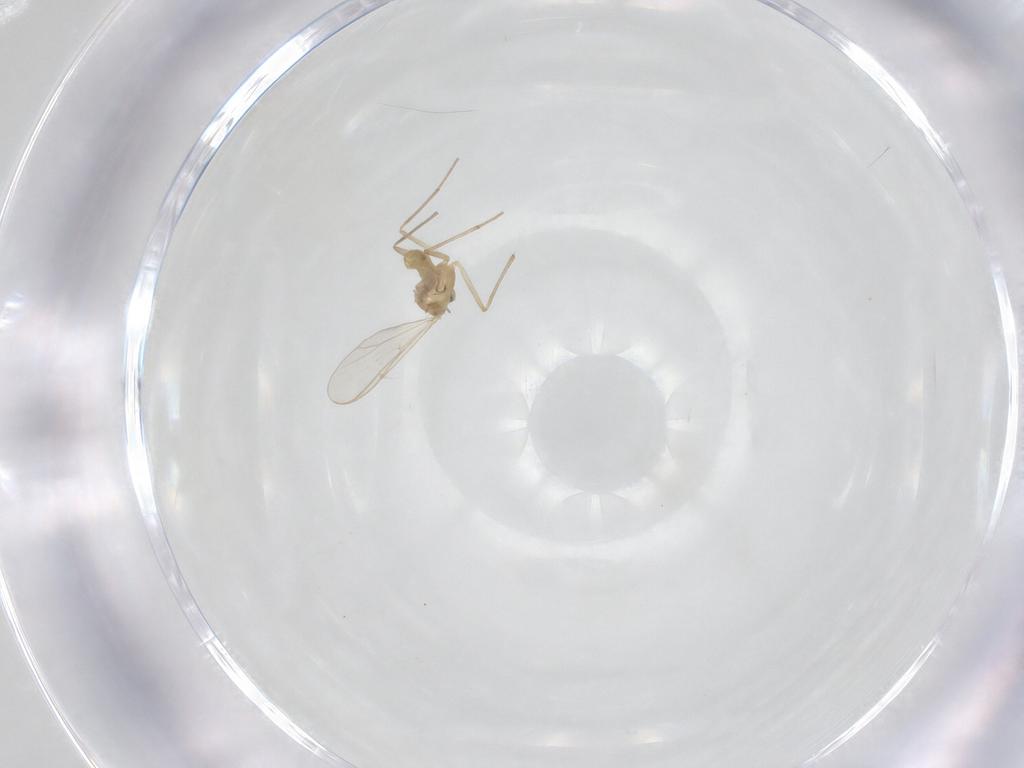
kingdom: Animalia
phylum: Arthropoda
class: Insecta
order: Diptera
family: Chironomidae
